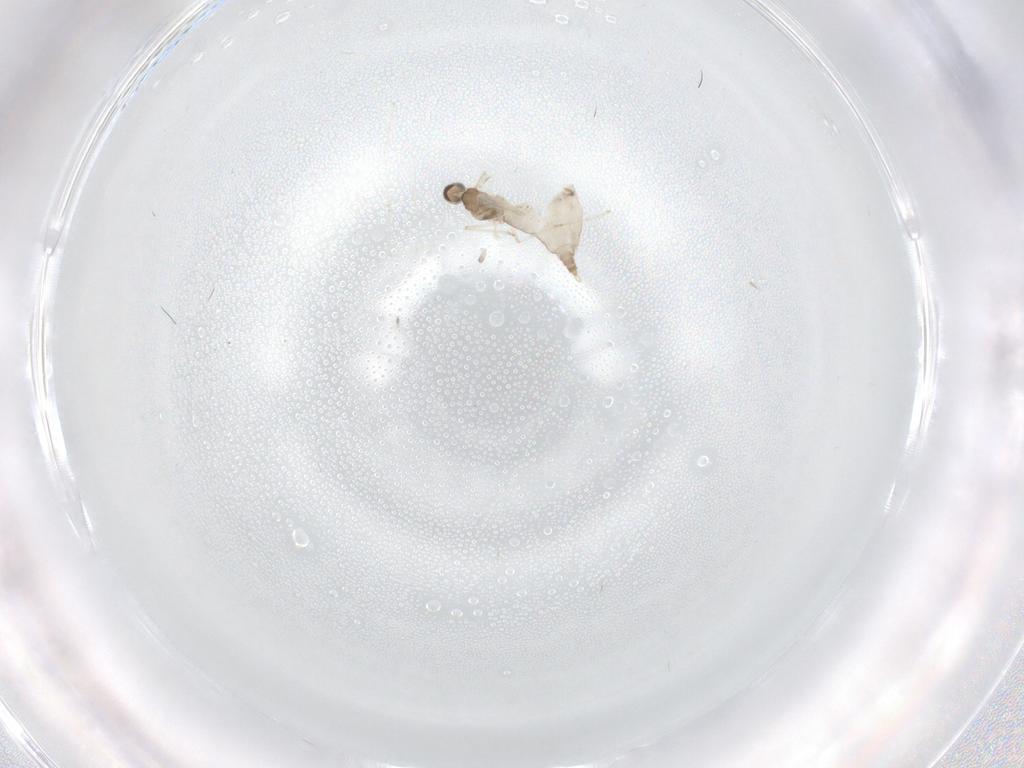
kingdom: Animalia
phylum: Arthropoda
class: Insecta
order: Diptera
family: Cecidomyiidae
